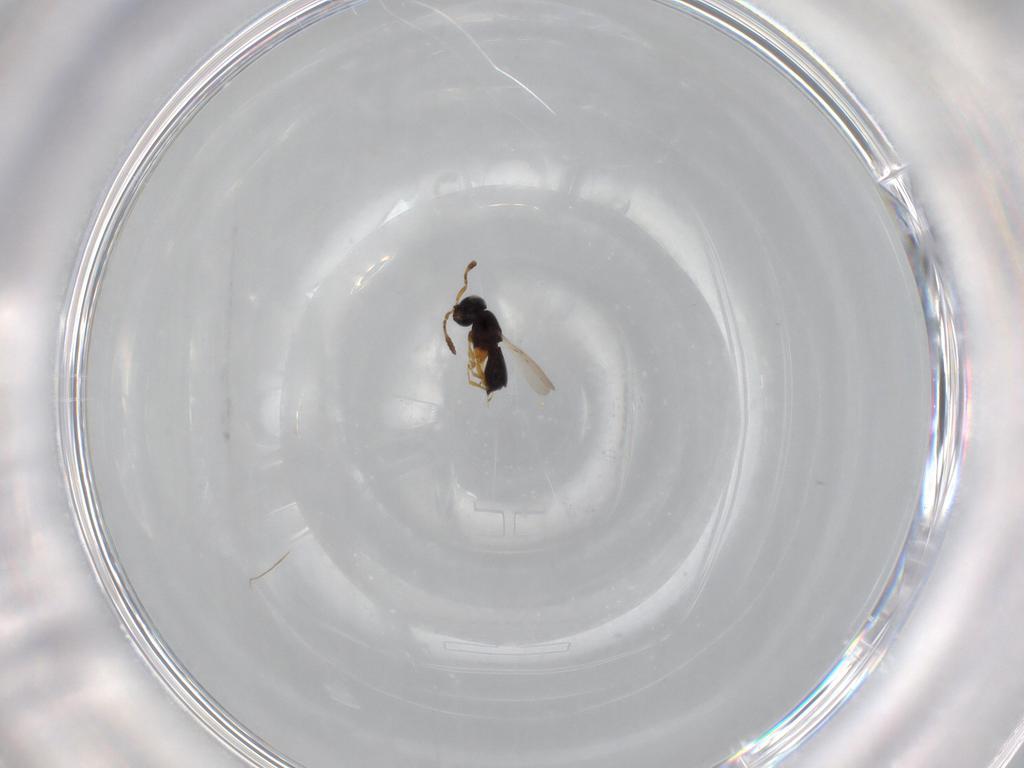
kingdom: Animalia
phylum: Arthropoda
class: Insecta
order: Hymenoptera
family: Scelionidae
